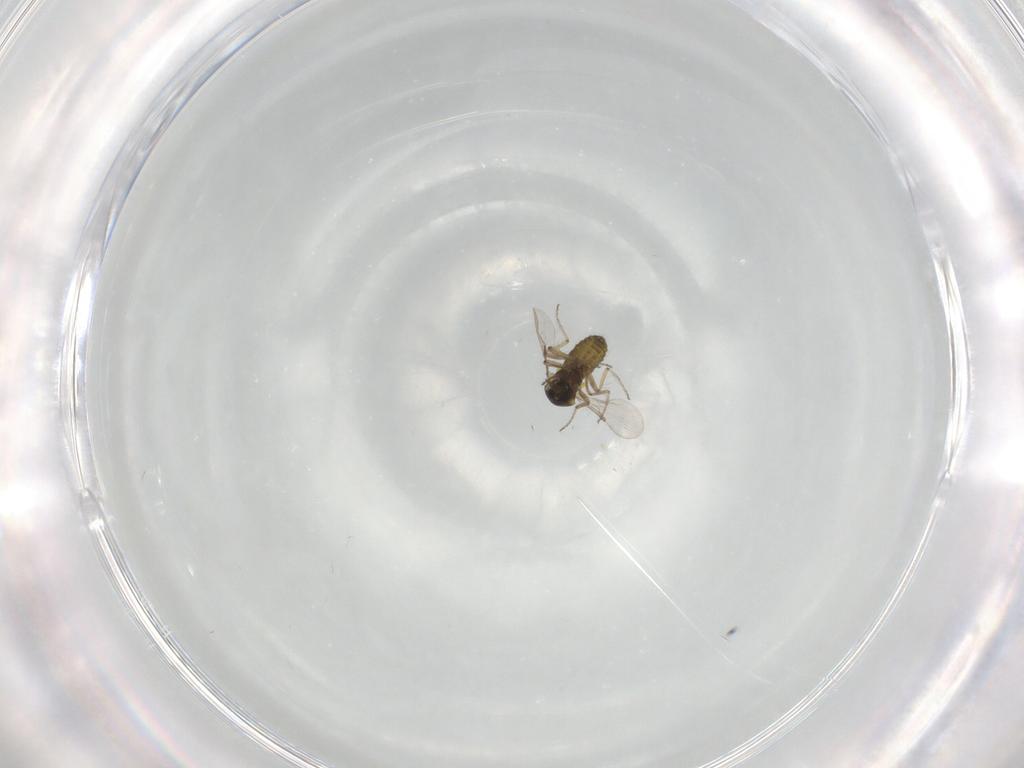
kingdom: Animalia
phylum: Arthropoda
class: Insecta
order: Diptera
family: Ceratopogonidae
